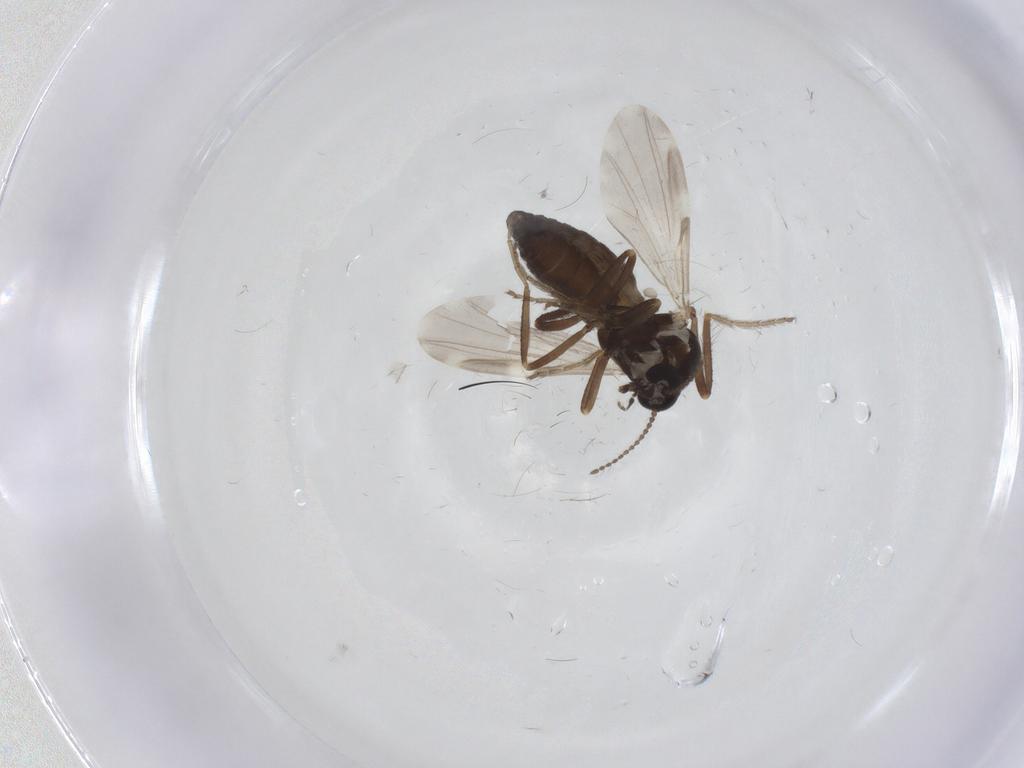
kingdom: Animalia
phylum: Arthropoda
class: Insecta
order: Diptera
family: Ceratopogonidae
